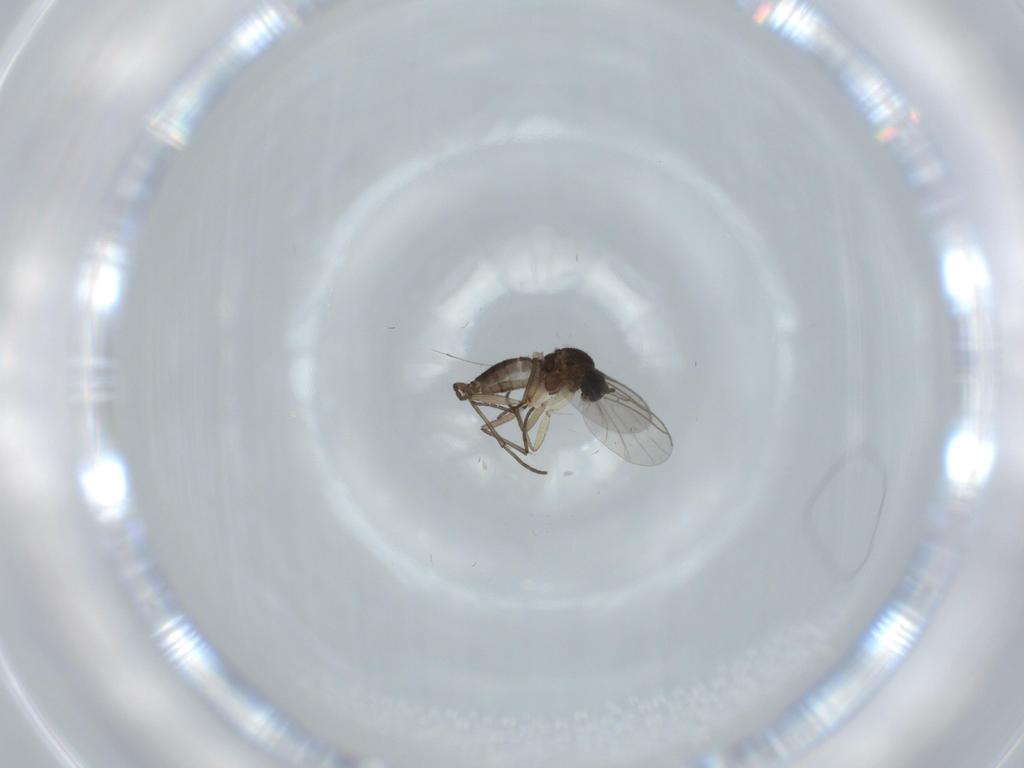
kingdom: Animalia
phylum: Arthropoda
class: Insecta
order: Diptera
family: Sciaridae
